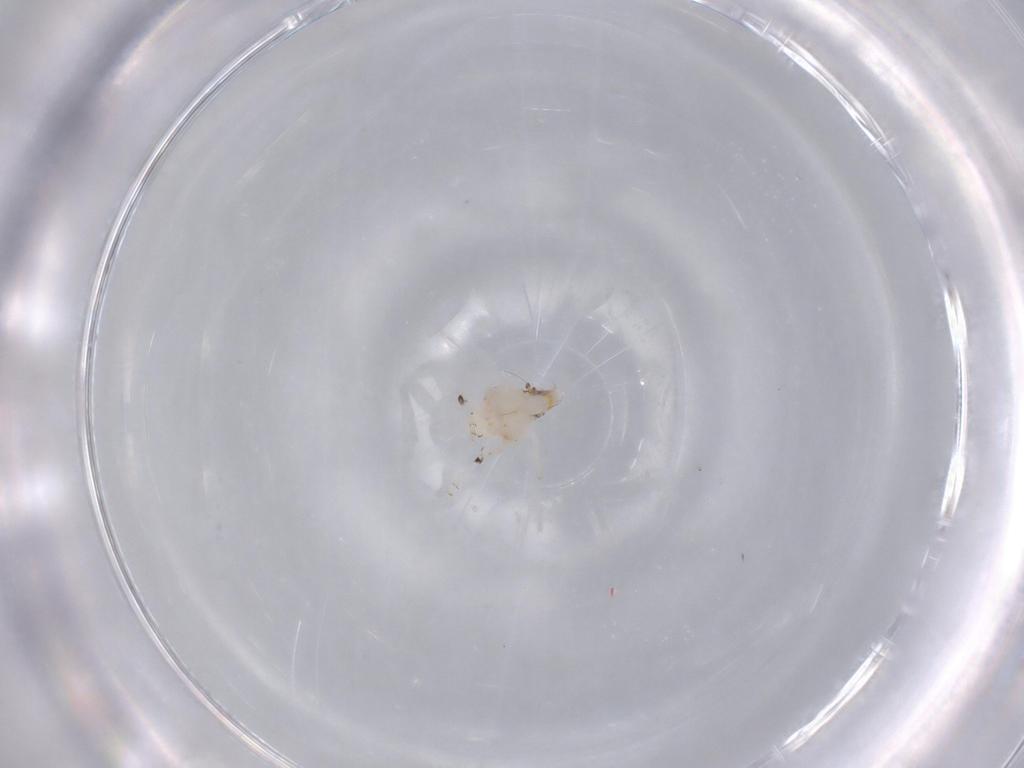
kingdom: Animalia
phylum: Arthropoda
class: Insecta
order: Hemiptera
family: Nogodinidae
